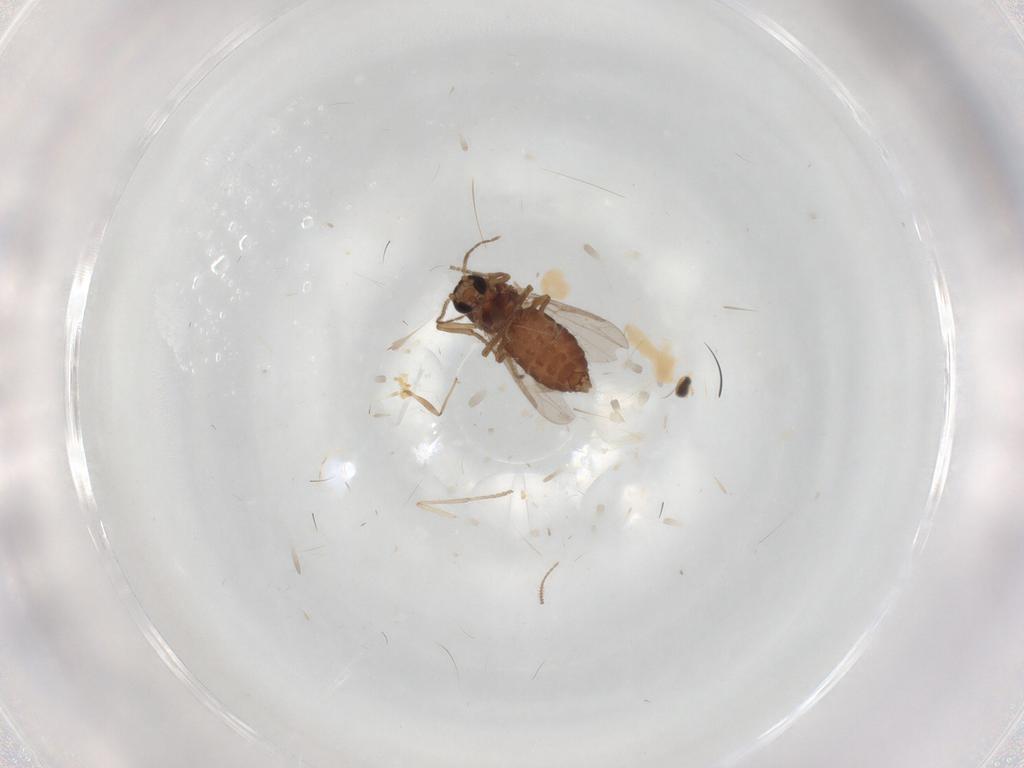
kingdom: Animalia
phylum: Arthropoda
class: Insecta
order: Diptera
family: Ceratopogonidae
